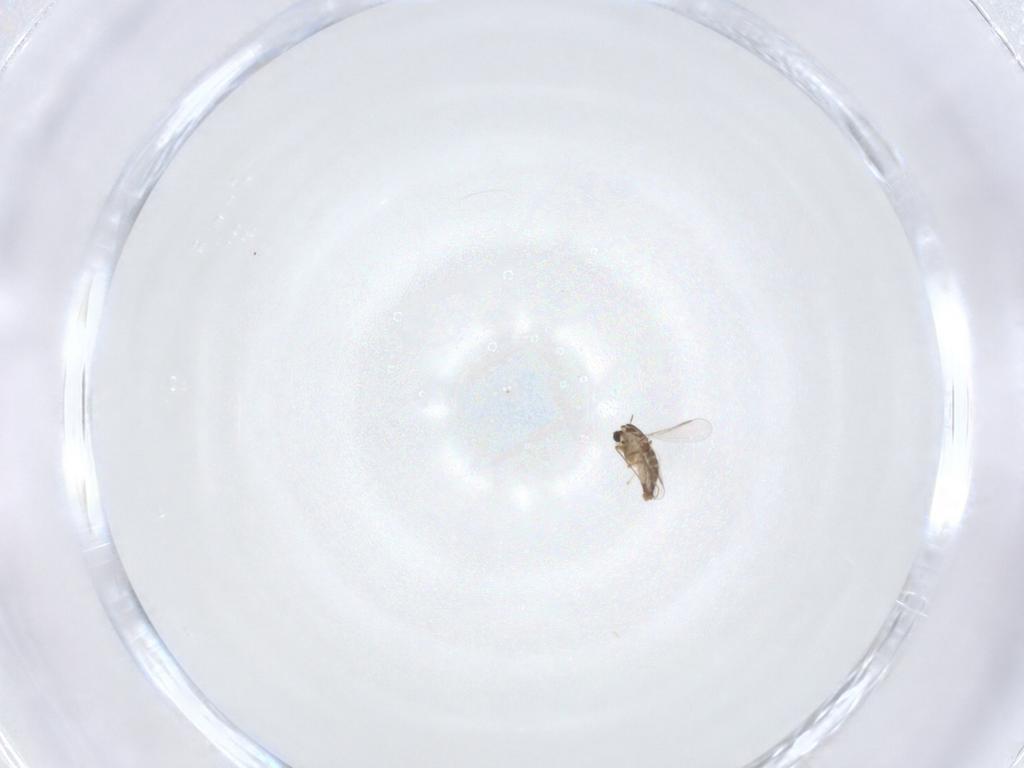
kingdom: Animalia
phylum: Arthropoda
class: Insecta
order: Diptera
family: Chironomidae
